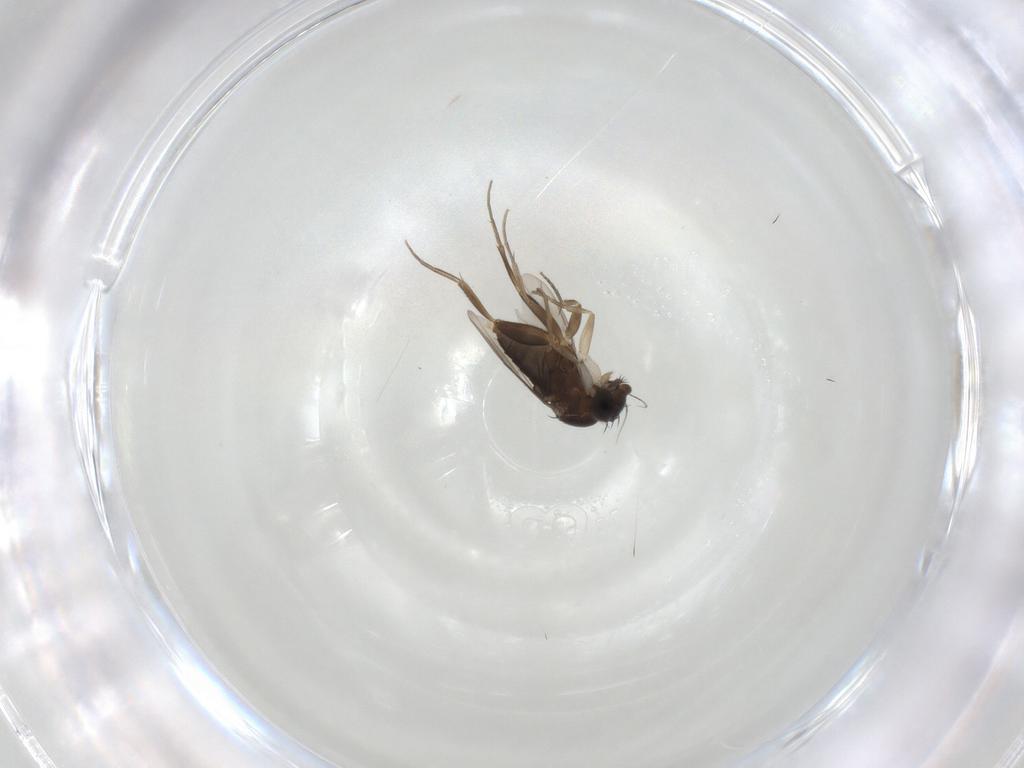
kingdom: Animalia
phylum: Arthropoda
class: Insecta
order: Diptera
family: Phoridae
